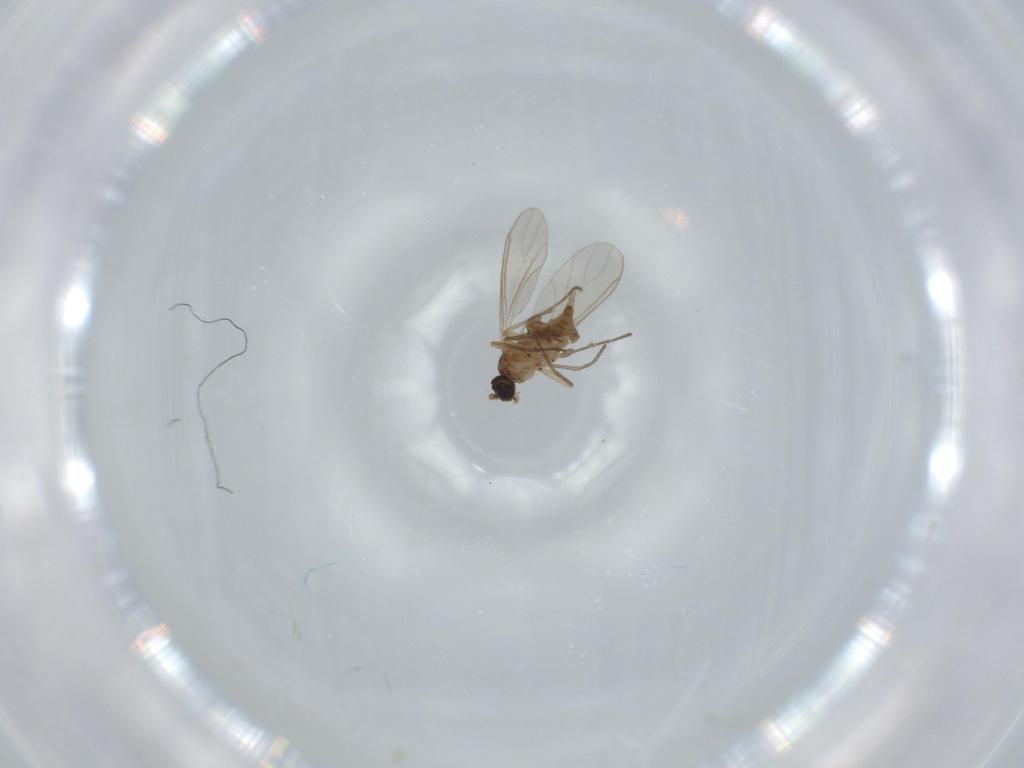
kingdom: Animalia
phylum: Arthropoda
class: Insecta
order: Diptera
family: Sciaridae
